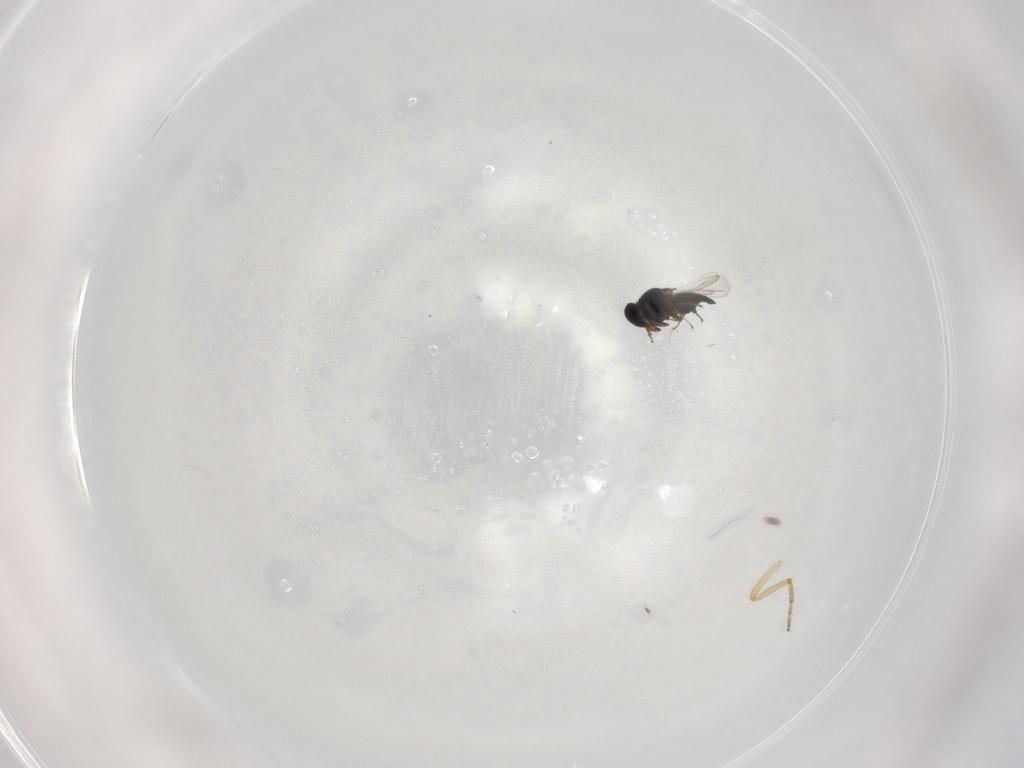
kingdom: Animalia
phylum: Arthropoda
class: Insecta
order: Hymenoptera
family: Platygastridae
